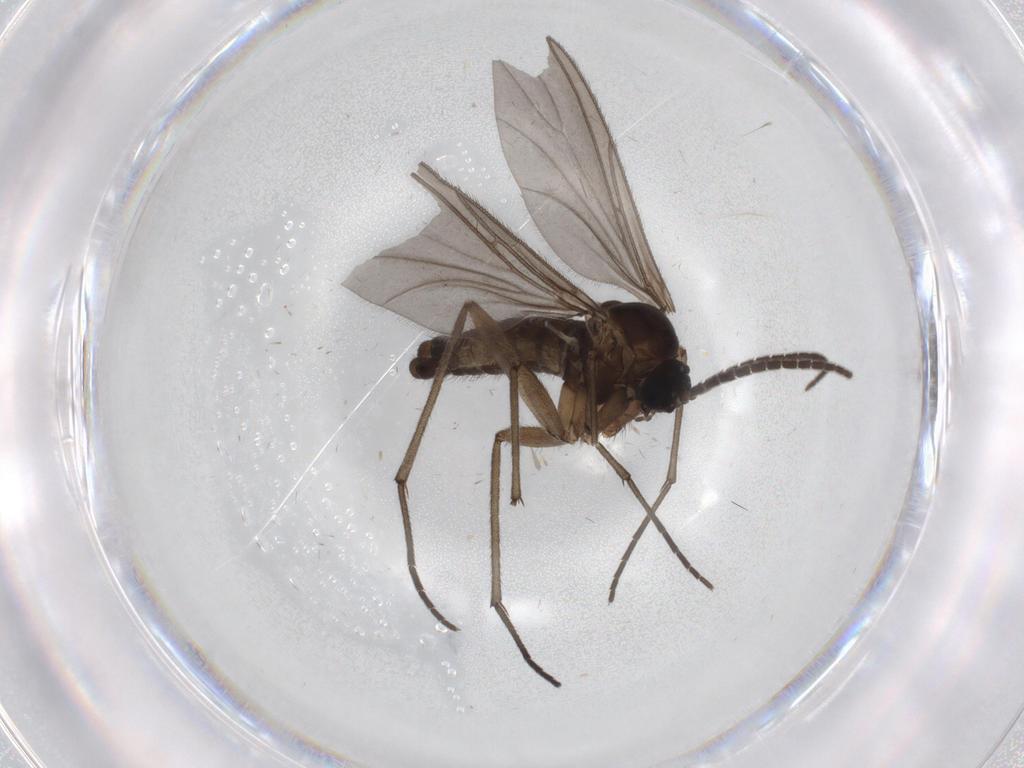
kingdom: Animalia
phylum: Arthropoda
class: Insecta
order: Diptera
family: Sciaridae
